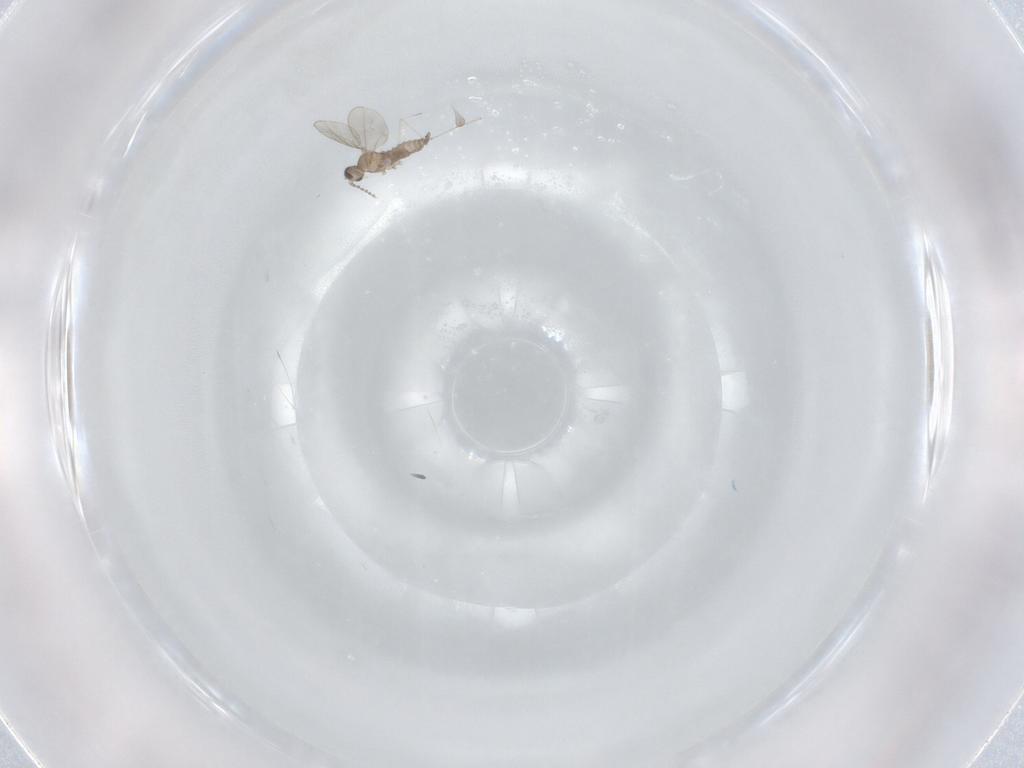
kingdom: Animalia
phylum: Arthropoda
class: Insecta
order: Diptera
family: Psychodidae
